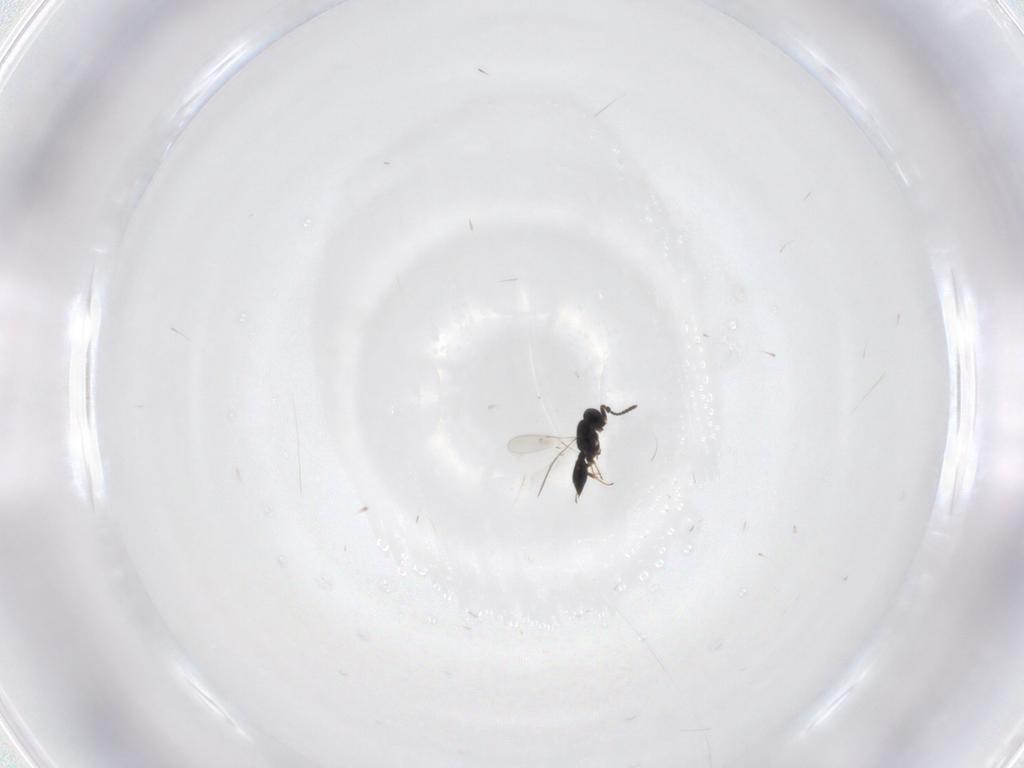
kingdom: Animalia
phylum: Arthropoda
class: Insecta
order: Hymenoptera
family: Scelionidae
